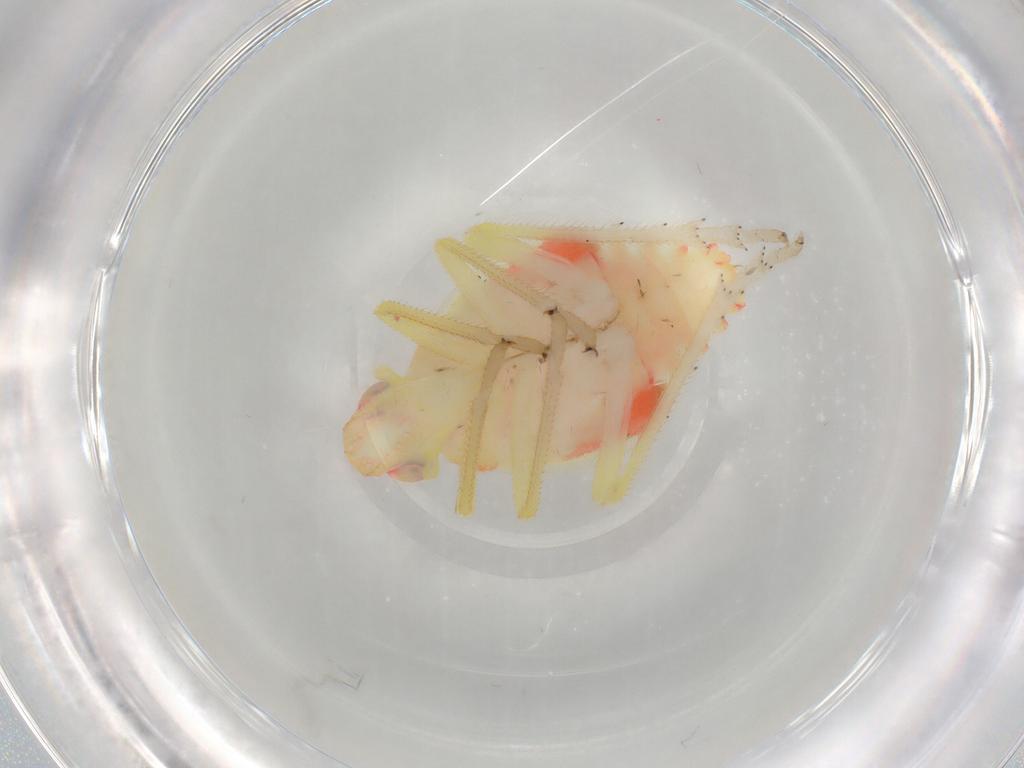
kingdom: Animalia
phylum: Arthropoda
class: Insecta
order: Hemiptera
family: Tropiduchidae
